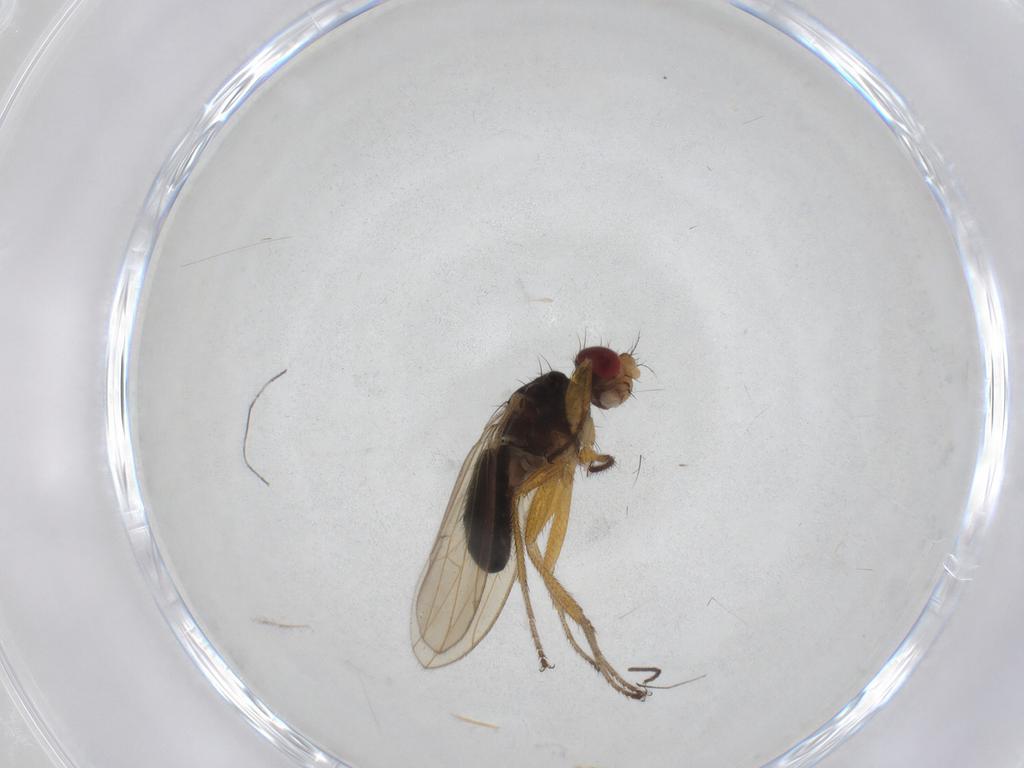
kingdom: Animalia
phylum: Arthropoda
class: Insecta
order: Diptera
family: Drosophilidae
